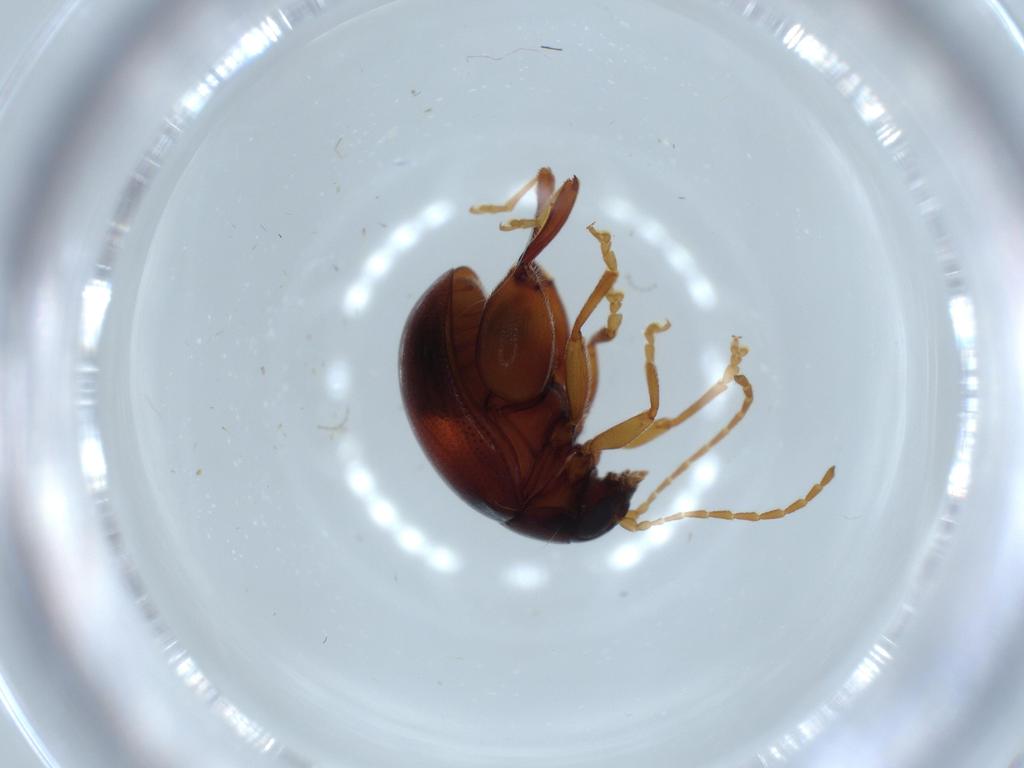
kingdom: Animalia
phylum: Arthropoda
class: Insecta
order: Coleoptera
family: Chrysomelidae
